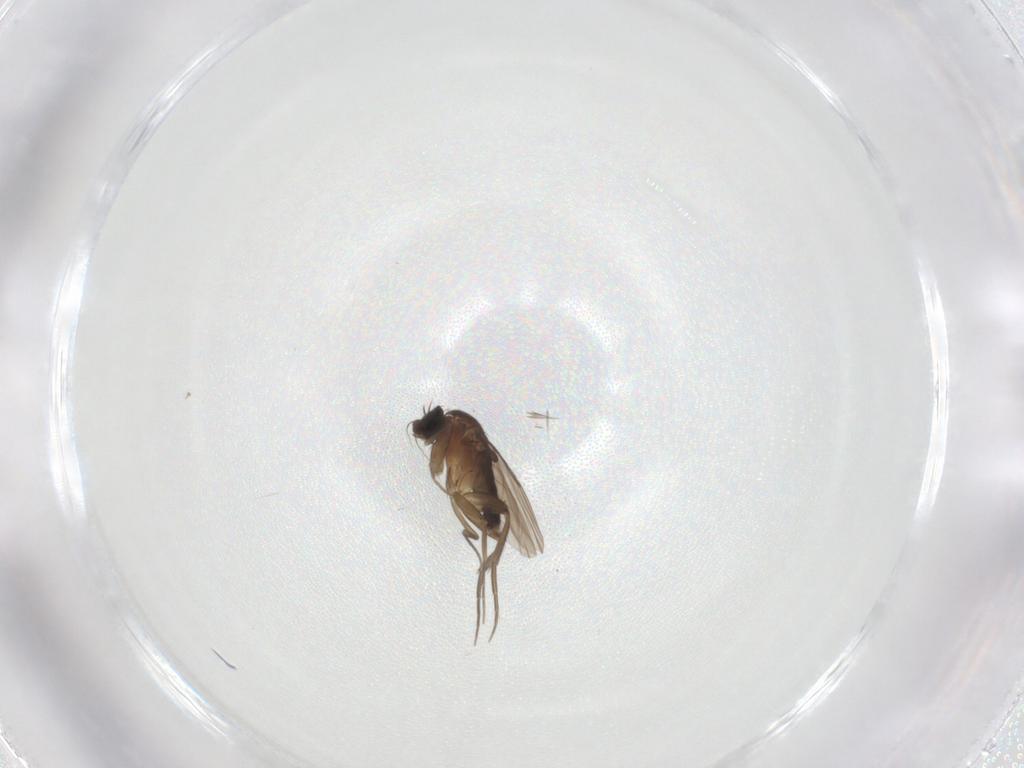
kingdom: Animalia
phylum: Arthropoda
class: Insecta
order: Diptera
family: Phoridae
